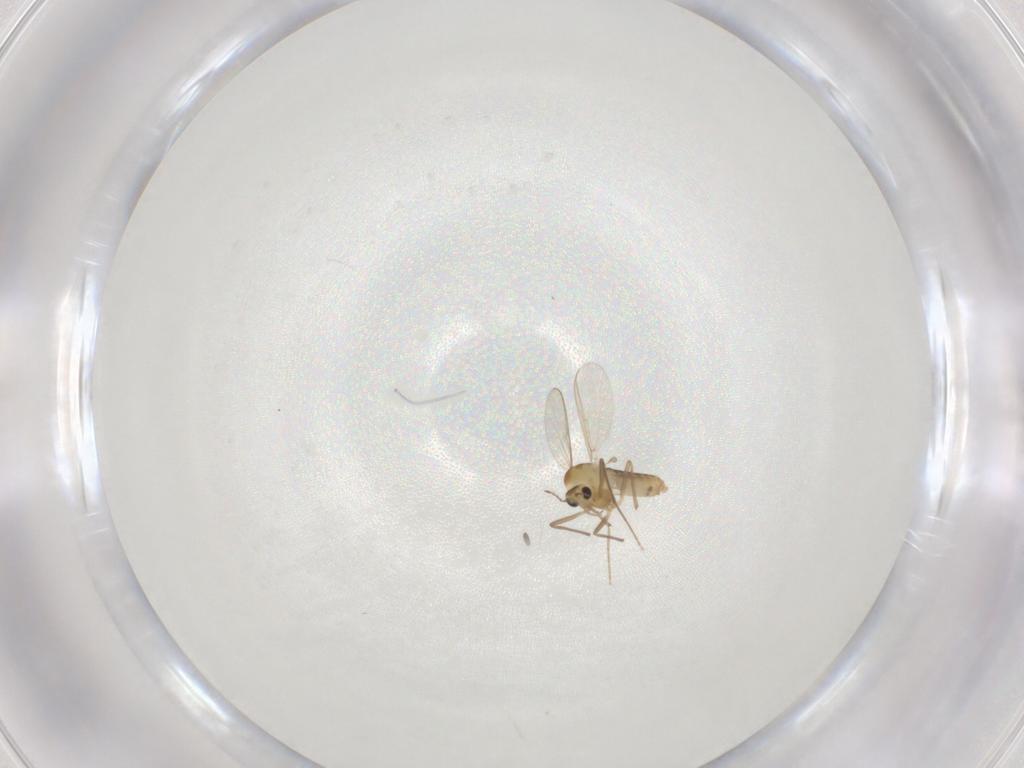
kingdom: Animalia
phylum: Arthropoda
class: Insecta
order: Diptera
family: Chironomidae
